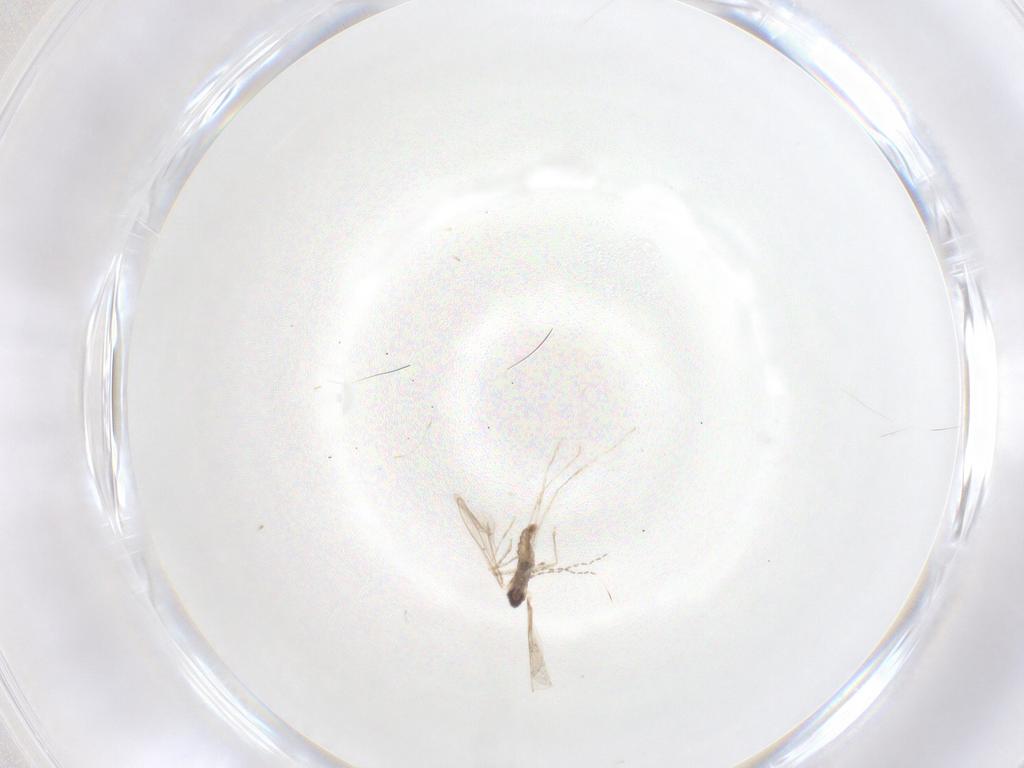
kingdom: Animalia
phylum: Arthropoda
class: Insecta
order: Diptera
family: Cecidomyiidae
